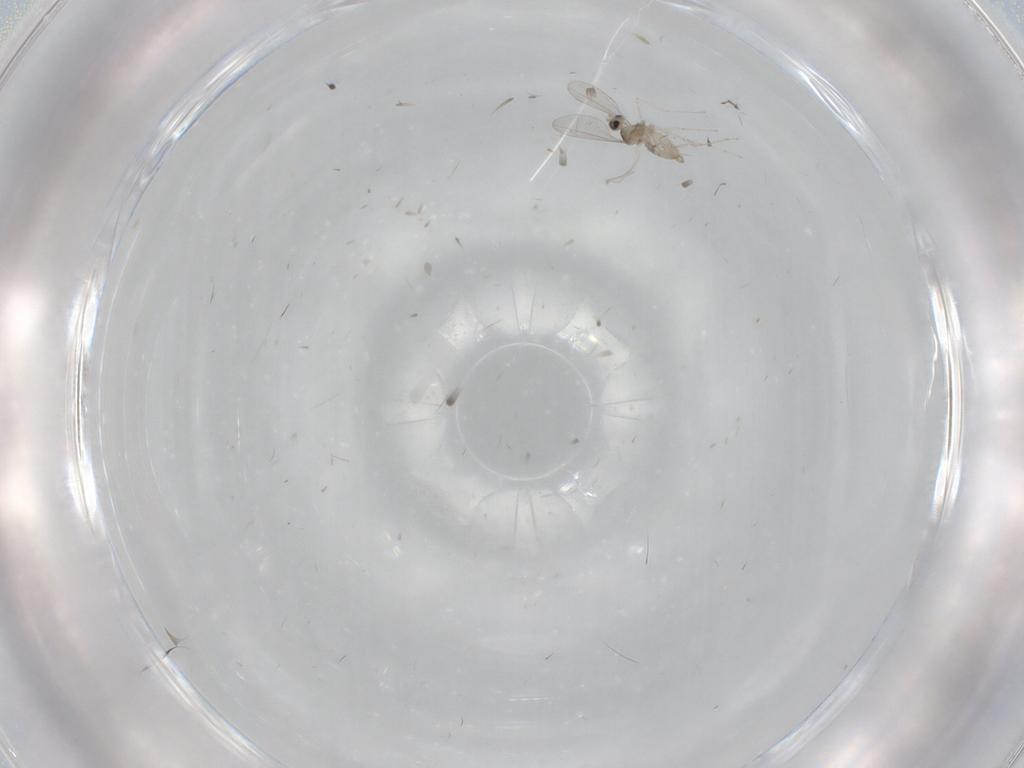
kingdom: Animalia
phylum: Arthropoda
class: Insecta
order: Diptera
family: Cecidomyiidae
